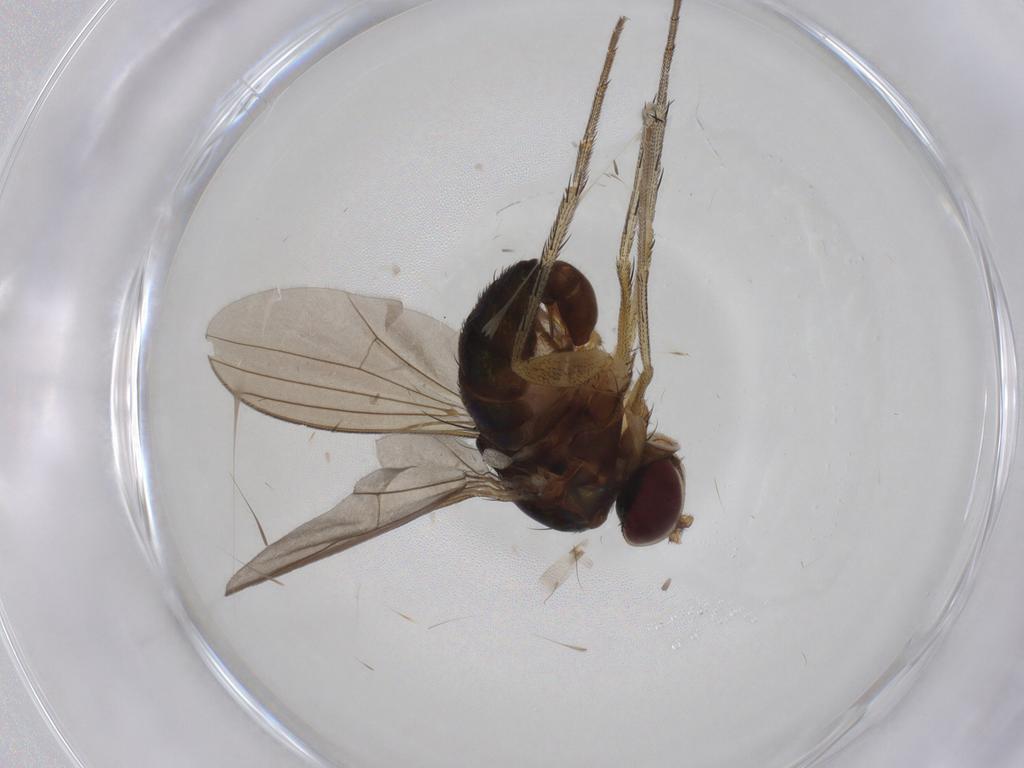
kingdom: Animalia
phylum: Arthropoda
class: Insecta
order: Diptera
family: Dolichopodidae
